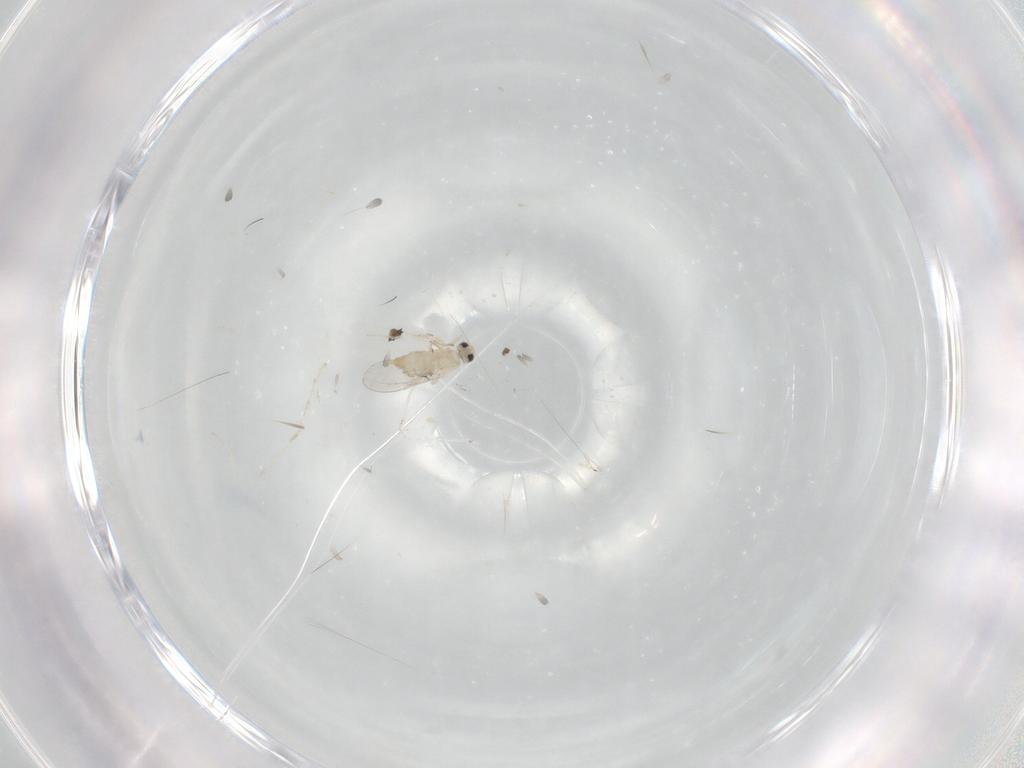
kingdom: Animalia
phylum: Arthropoda
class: Insecta
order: Diptera
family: Cecidomyiidae
